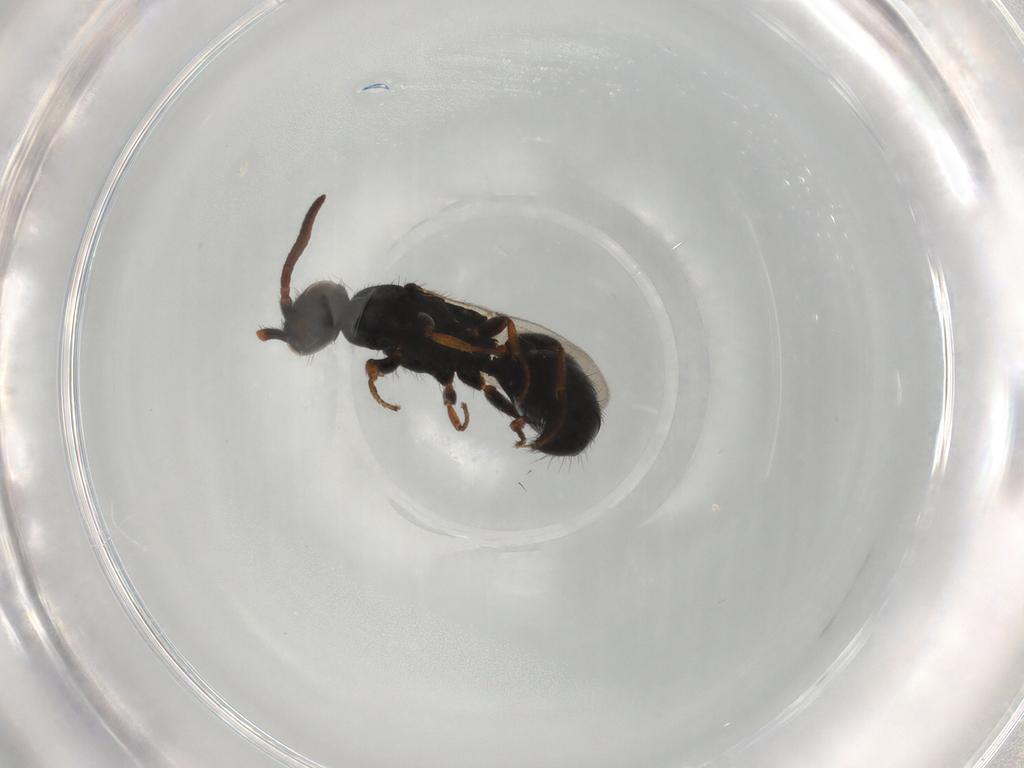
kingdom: Animalia
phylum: Arthropoda
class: Insecta
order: Hymenoptera
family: Bethylidae
